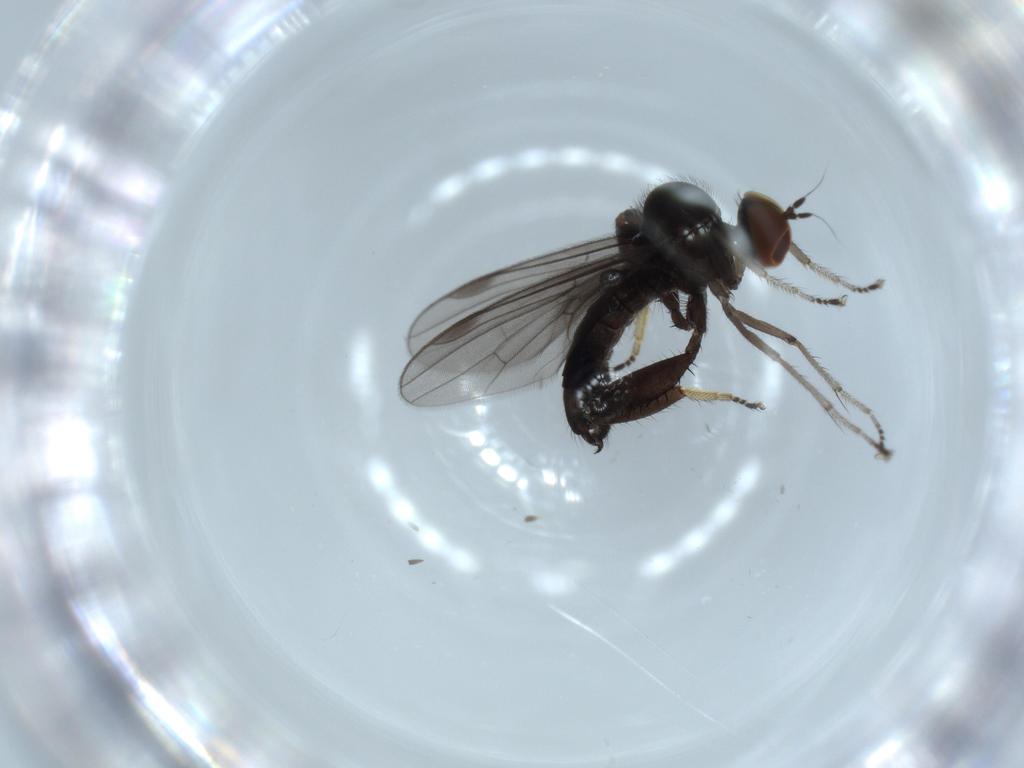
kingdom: Animalia
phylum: Arthropoda
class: Insecta
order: Diptera
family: Hybotidae
